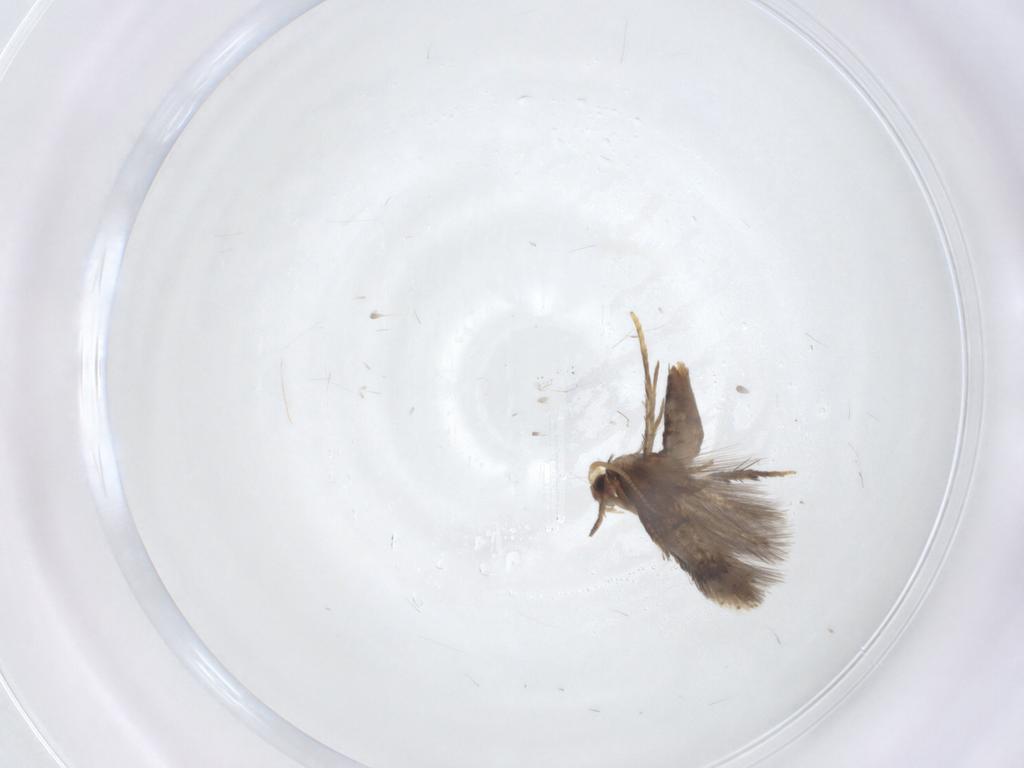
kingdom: Animalia
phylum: Arthropoda
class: Insecta
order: Lepidoptera
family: Nepticulidae
